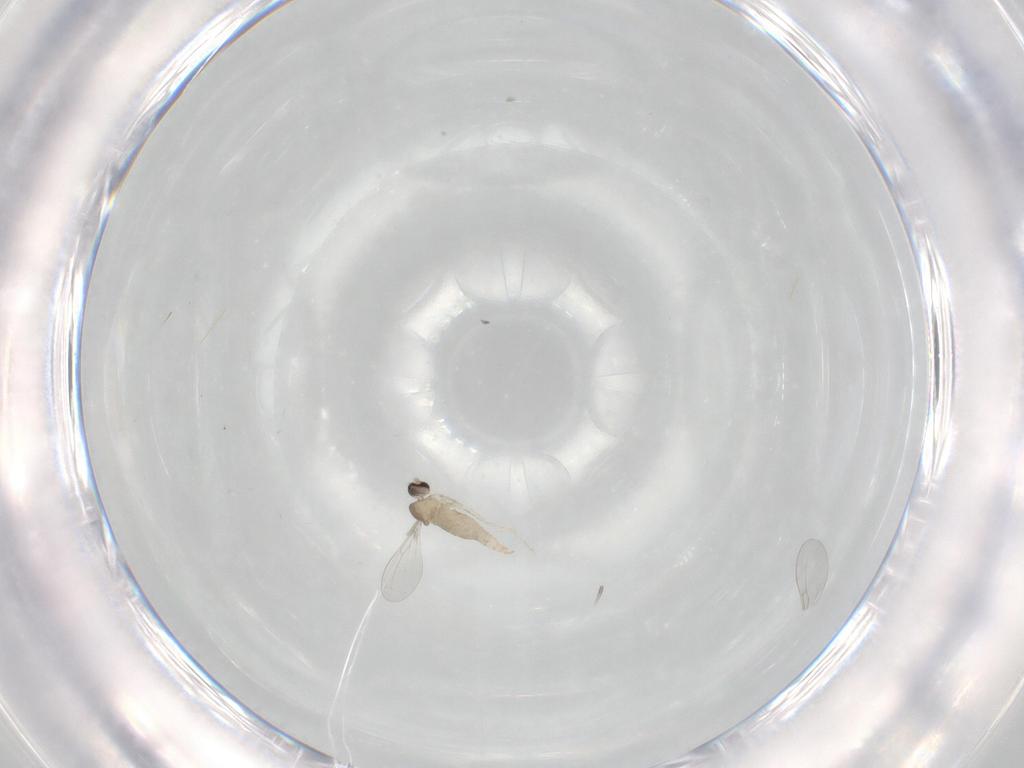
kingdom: Animalia
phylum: Arthropoda
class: Insecta
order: Diptera
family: Cecidomyiidae
